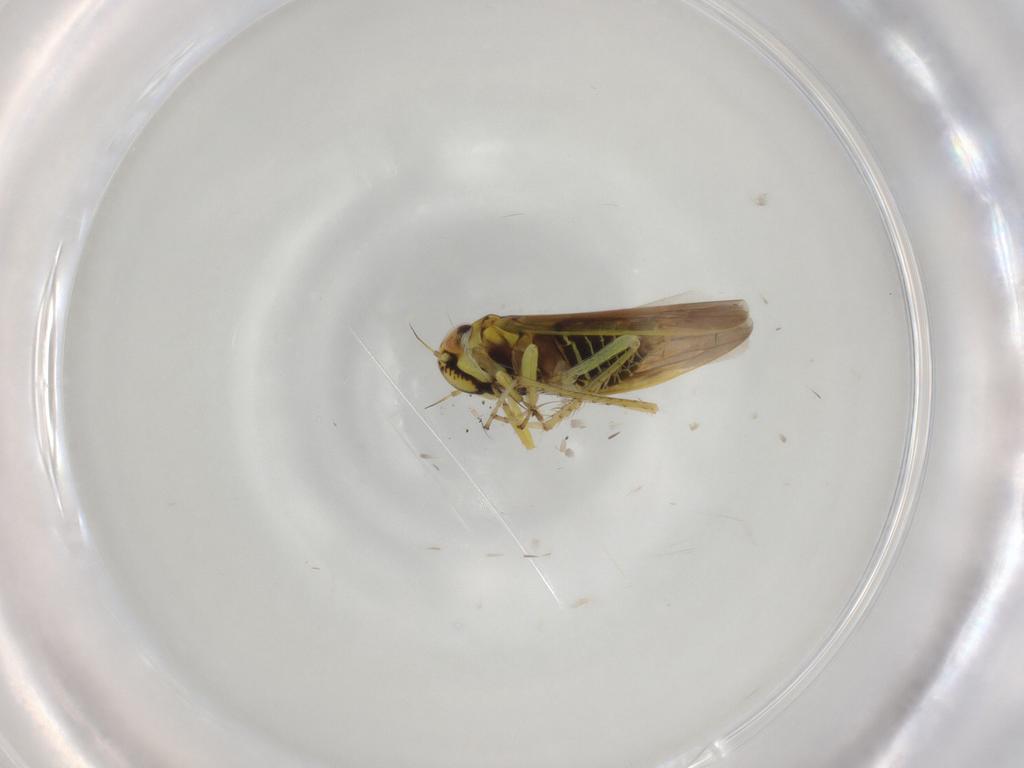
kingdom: Animalia
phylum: Arthropoda
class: Insecta
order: Hemiptera
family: Cicadellidae
